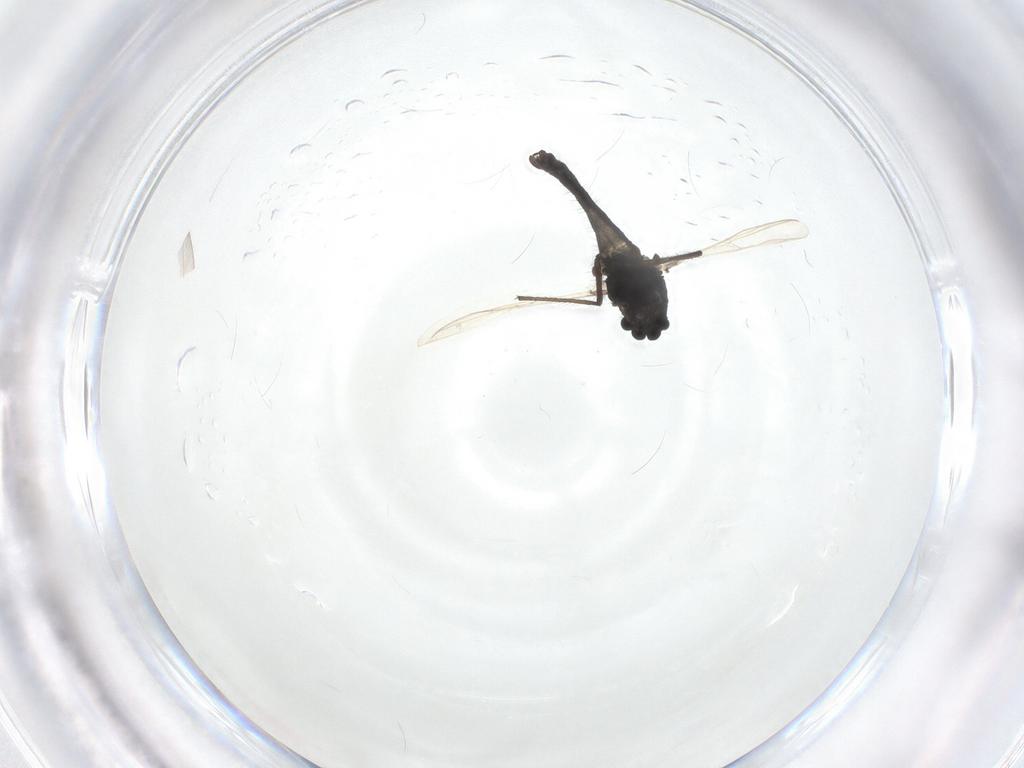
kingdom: Animalia
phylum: Arthropoda
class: Insecta
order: Diptera
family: Chironomidae
